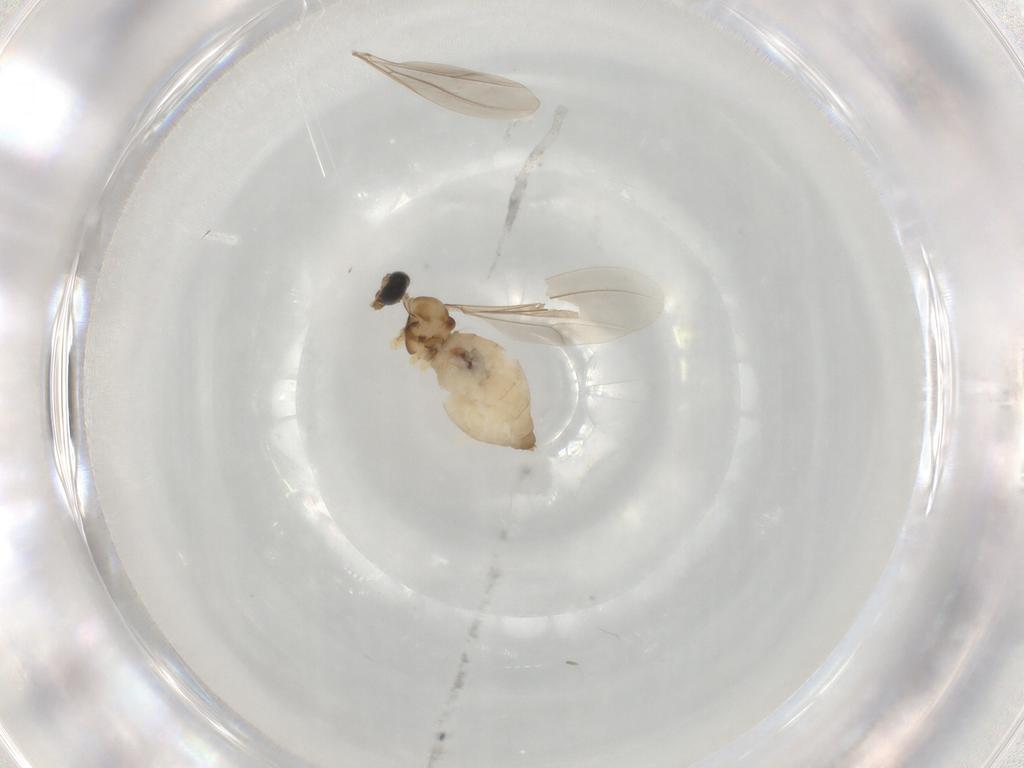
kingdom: Animalia
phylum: Arthropoda
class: Insecta
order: Diptera
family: Cecidomyiidae
